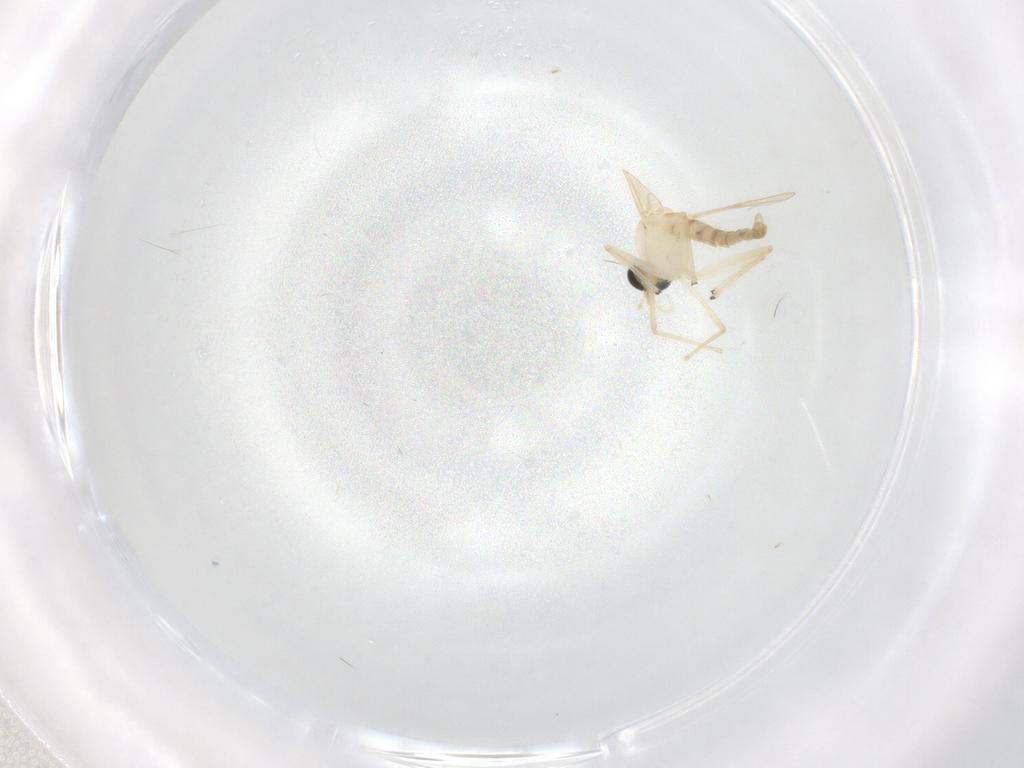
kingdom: Animalia
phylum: Arthropoda
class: Insecta
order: Diptera
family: Chironomidae
